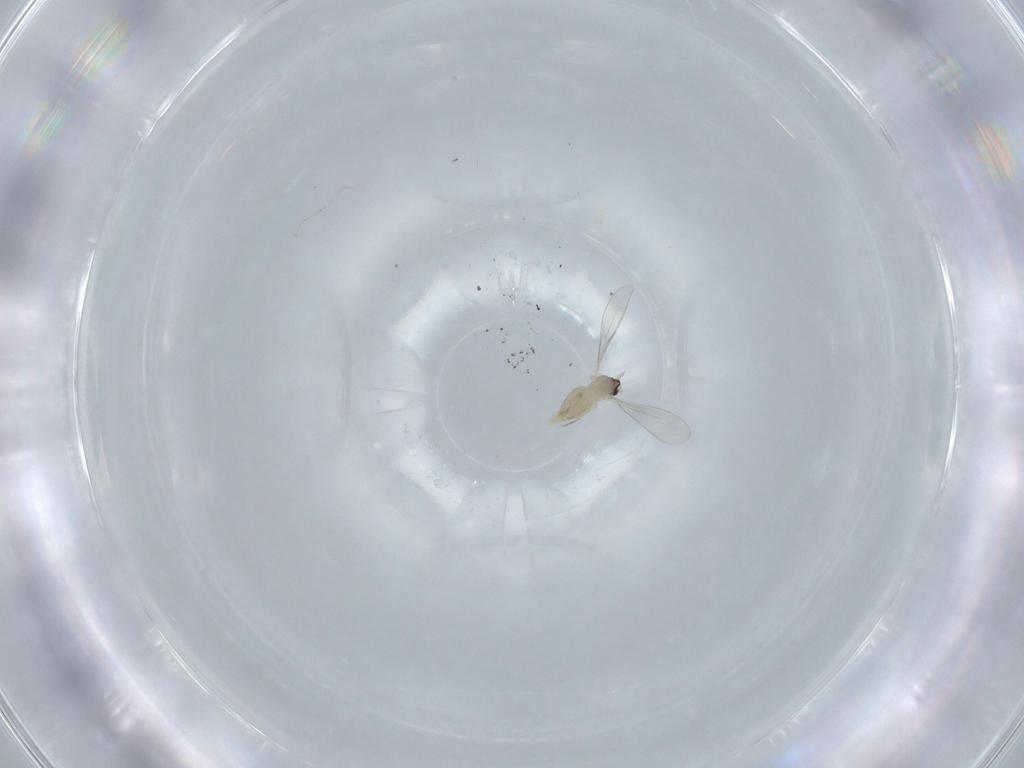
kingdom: Animalia
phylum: Arthropoda
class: Insecta
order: Diptera
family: Cecidomyiidae
